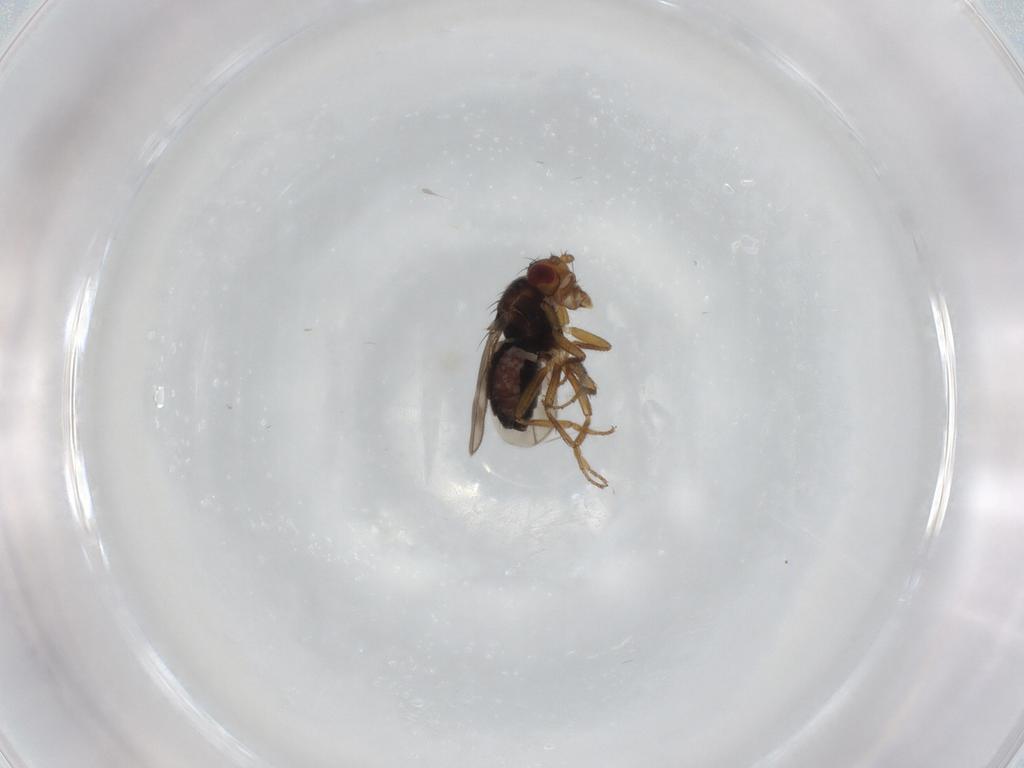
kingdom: Animalia
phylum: Arthropoda
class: Insecta
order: Diptera
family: Sphaeroceridae
